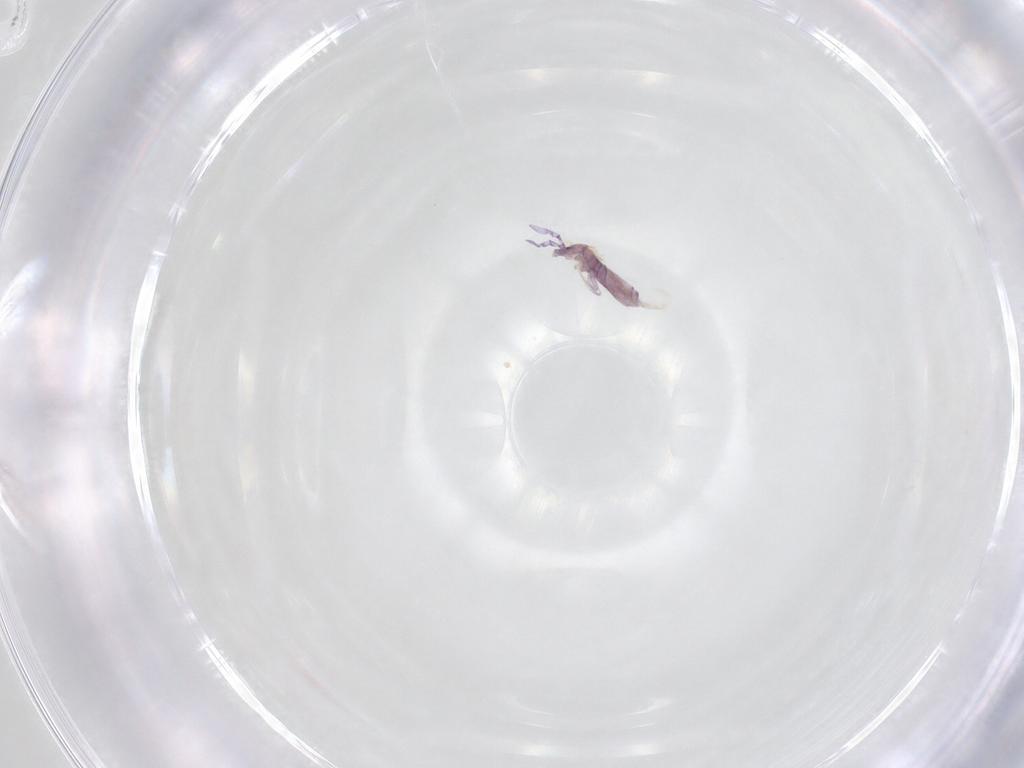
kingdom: Animalia
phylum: Arthropoda
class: Collembola
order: Entomobryomorpha
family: Entomobryidae
